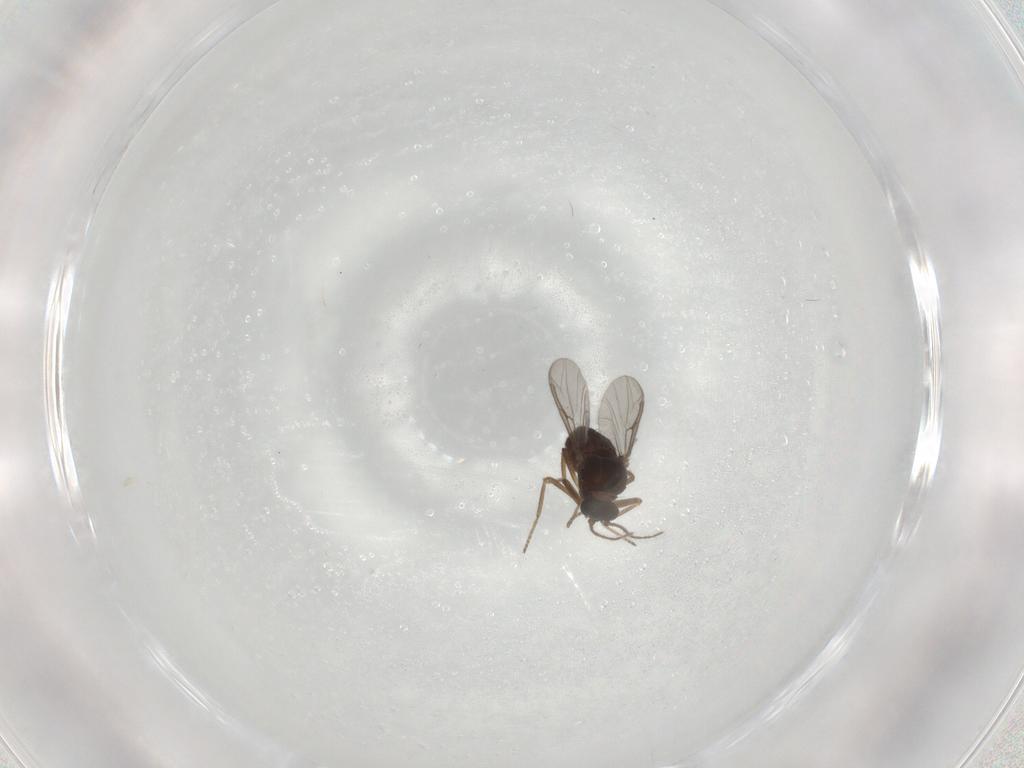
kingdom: Animalia
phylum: Arthropoda
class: Insecta
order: Diptera
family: Ceratopogonidae
